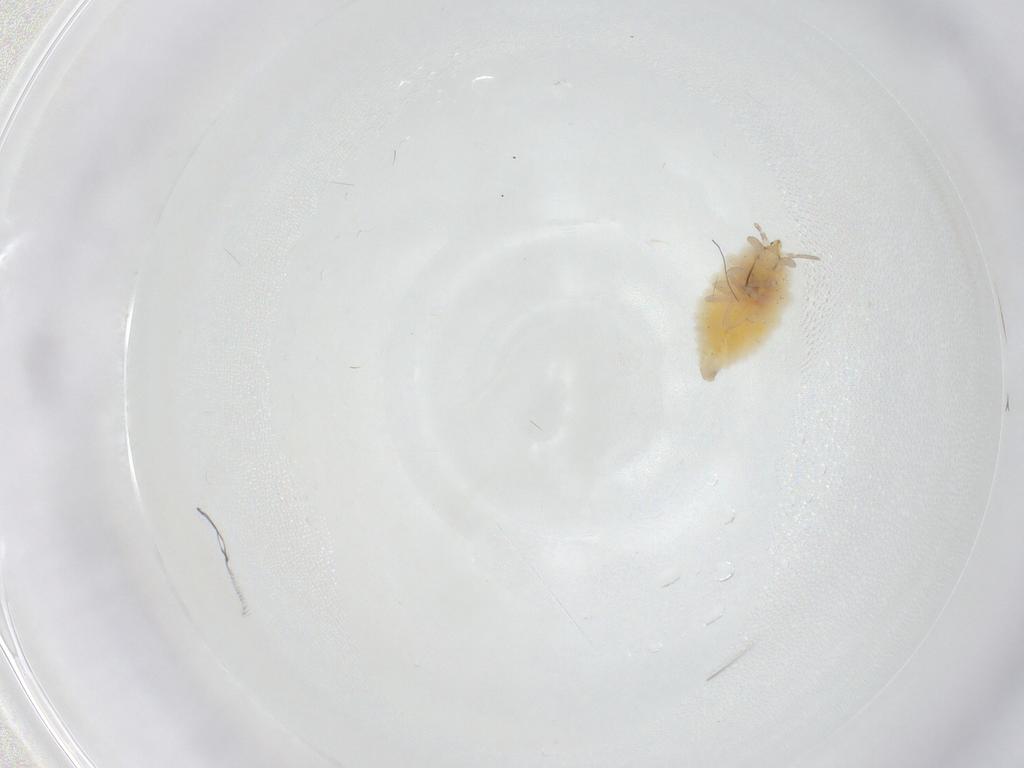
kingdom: Animalia
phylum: Arthropoda
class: Insecta
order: Neuroptera
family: Coniopterygidae
